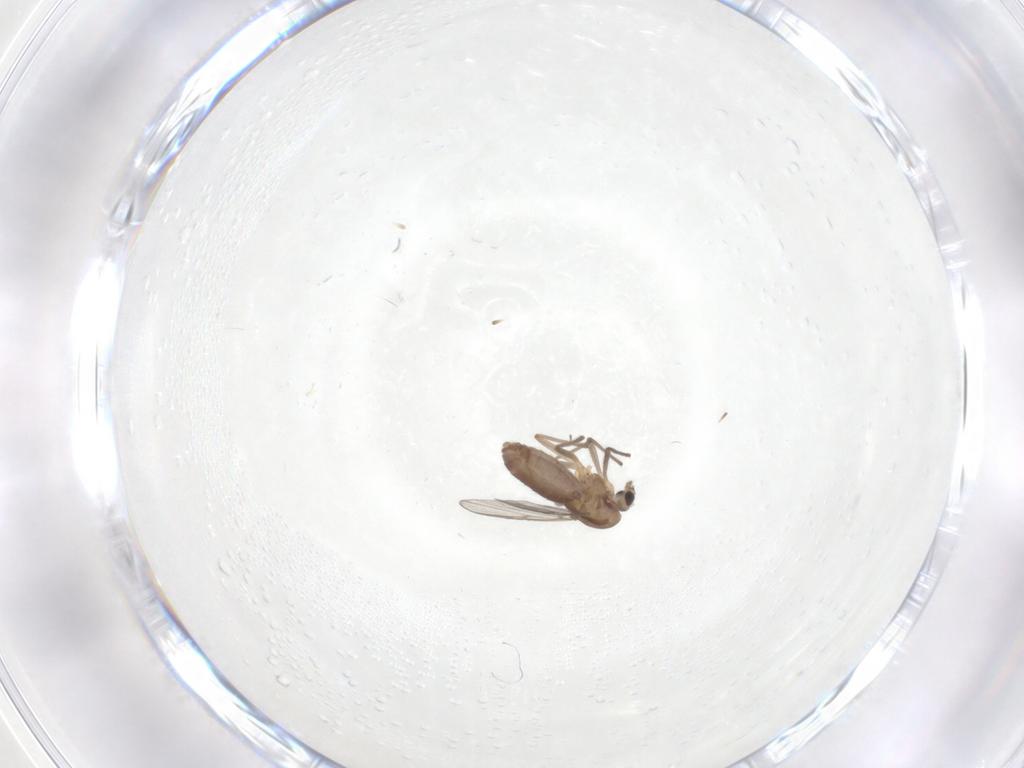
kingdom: Animalia
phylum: Arthropoda
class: Insecta
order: Diptera
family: Chironomidae
